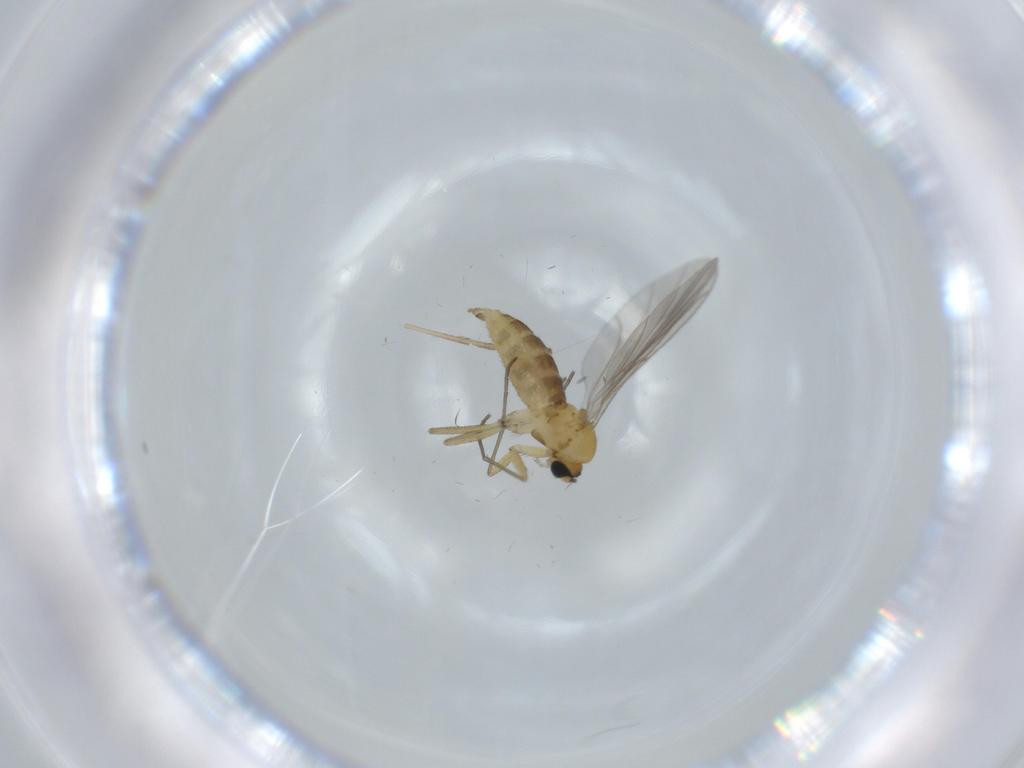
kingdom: Animalia
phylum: Arthropoda
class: Insecta
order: Diptera
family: Sciaridae
